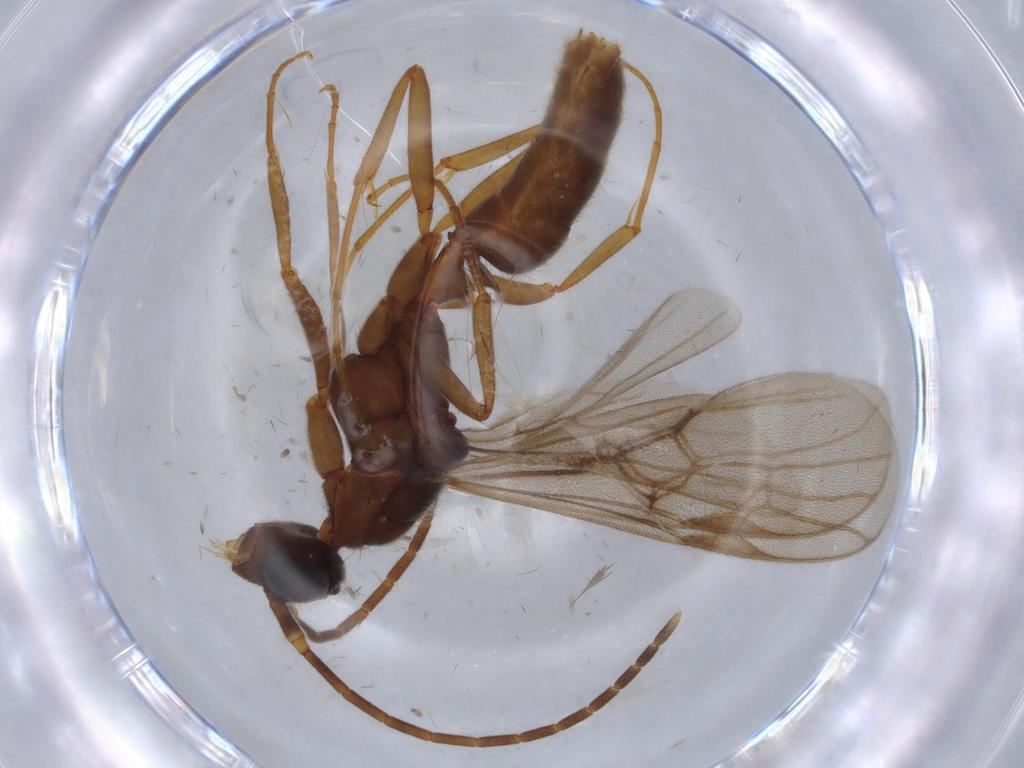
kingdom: Animalia
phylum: Arthropoda
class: Insecta
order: Hymenoptera
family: Formicidae
